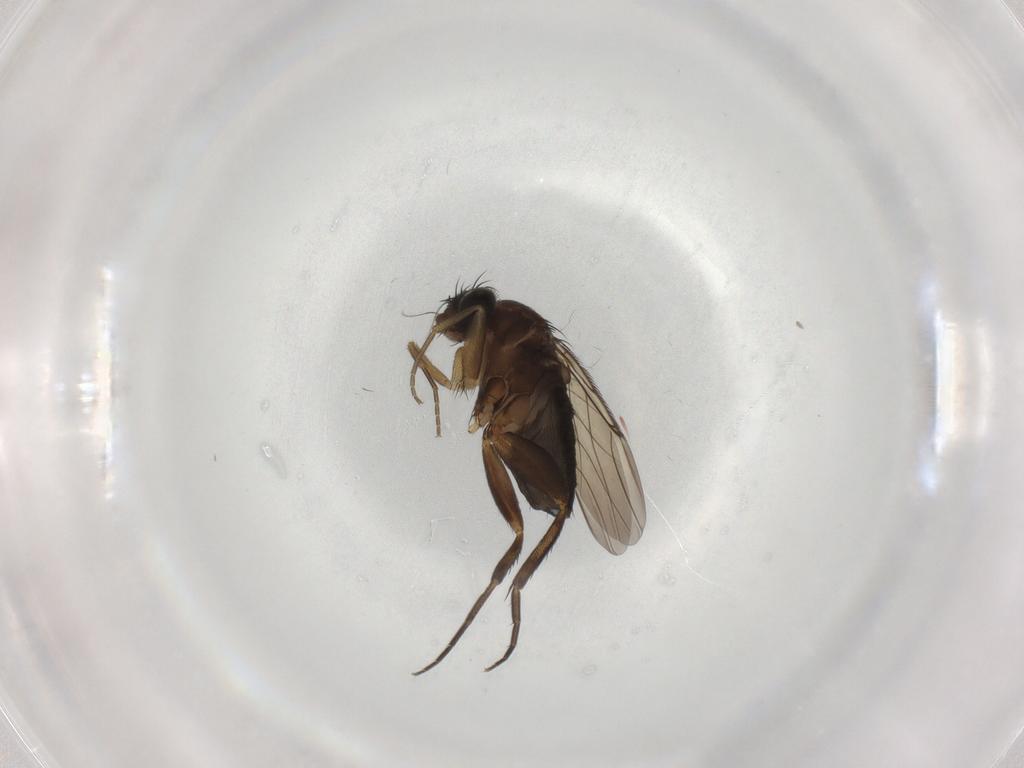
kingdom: Animalia
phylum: Arthropoda
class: Insecta
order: Diptera
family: Phoridae
